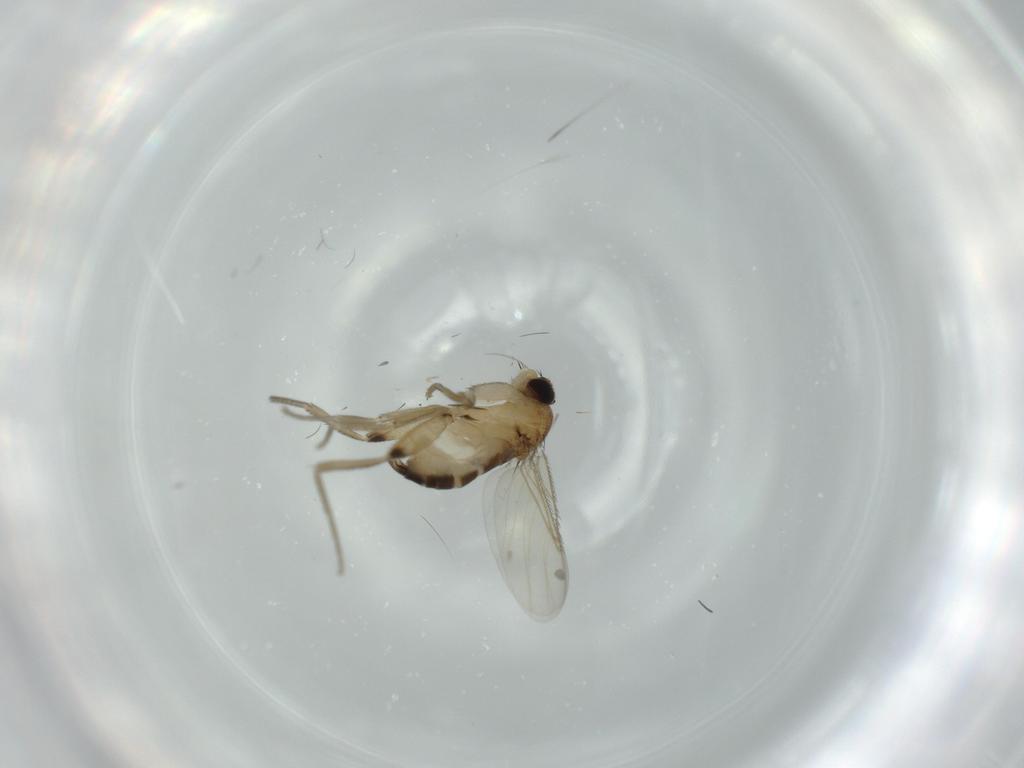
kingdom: Animalia
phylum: Arthropoda
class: Insecta
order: Diptera
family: Phoridae
